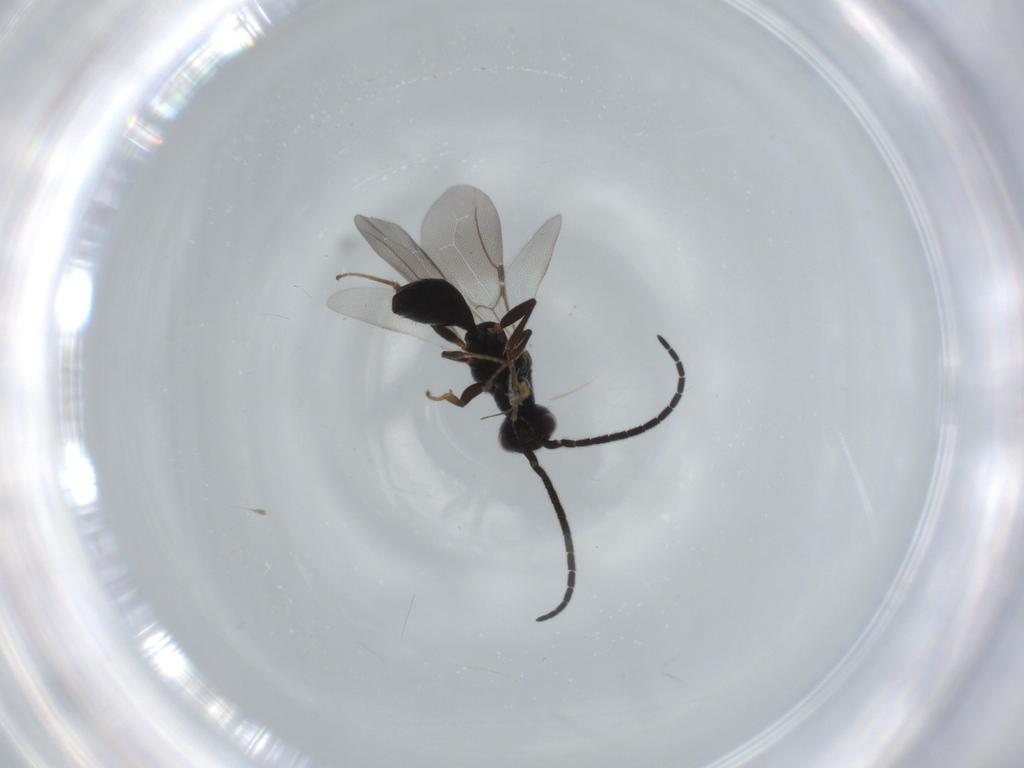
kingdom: Animalia
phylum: Arthropoda
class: Insecta
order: Hymenoptera
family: Bethylidae
